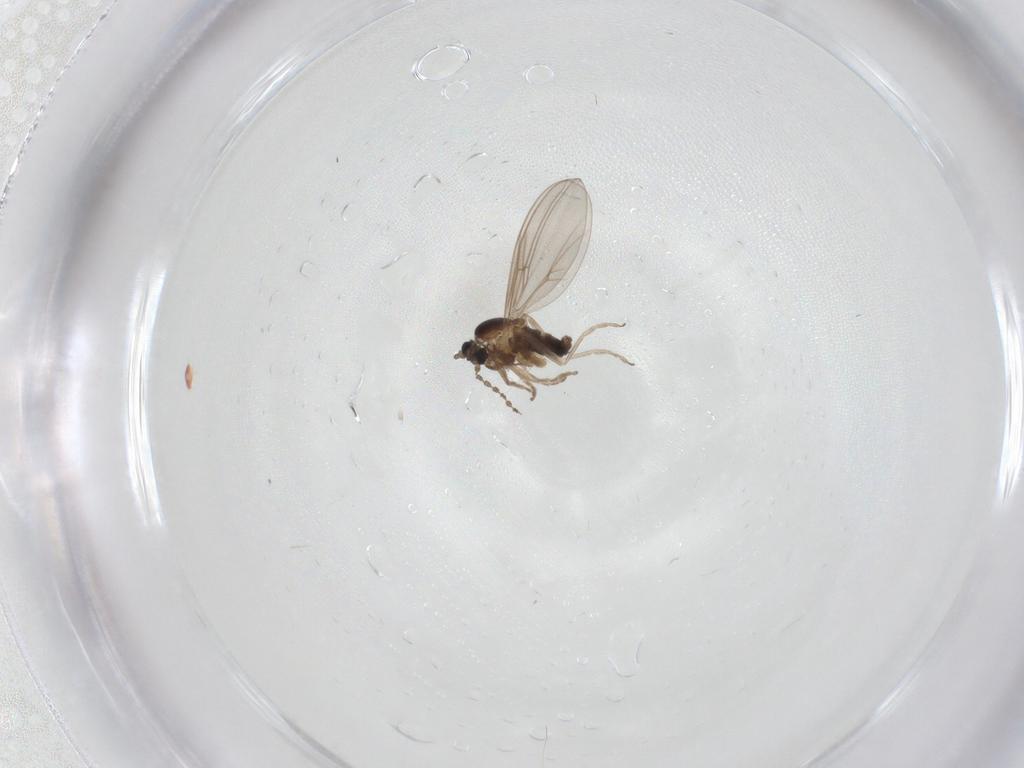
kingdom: Animalia
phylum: Arthropoda
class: Insecta
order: Diptera
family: Cecidomyiidae
